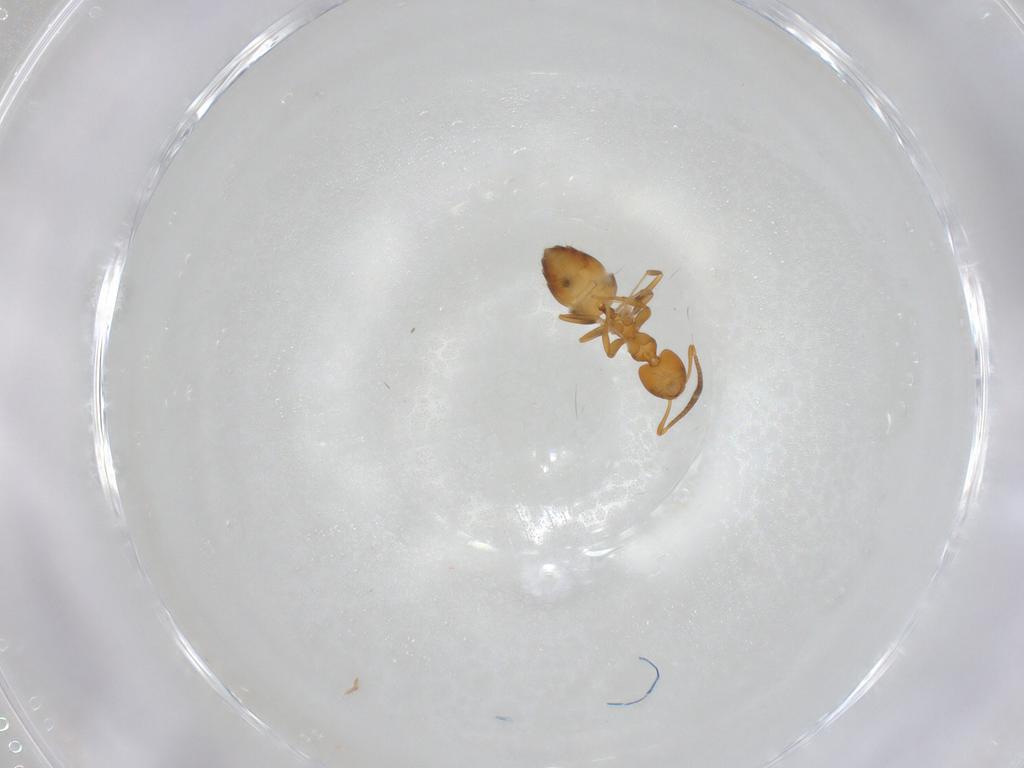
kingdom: Animalia
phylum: Arthropoda
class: Insecta
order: Hymenoptera
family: Formicidae
